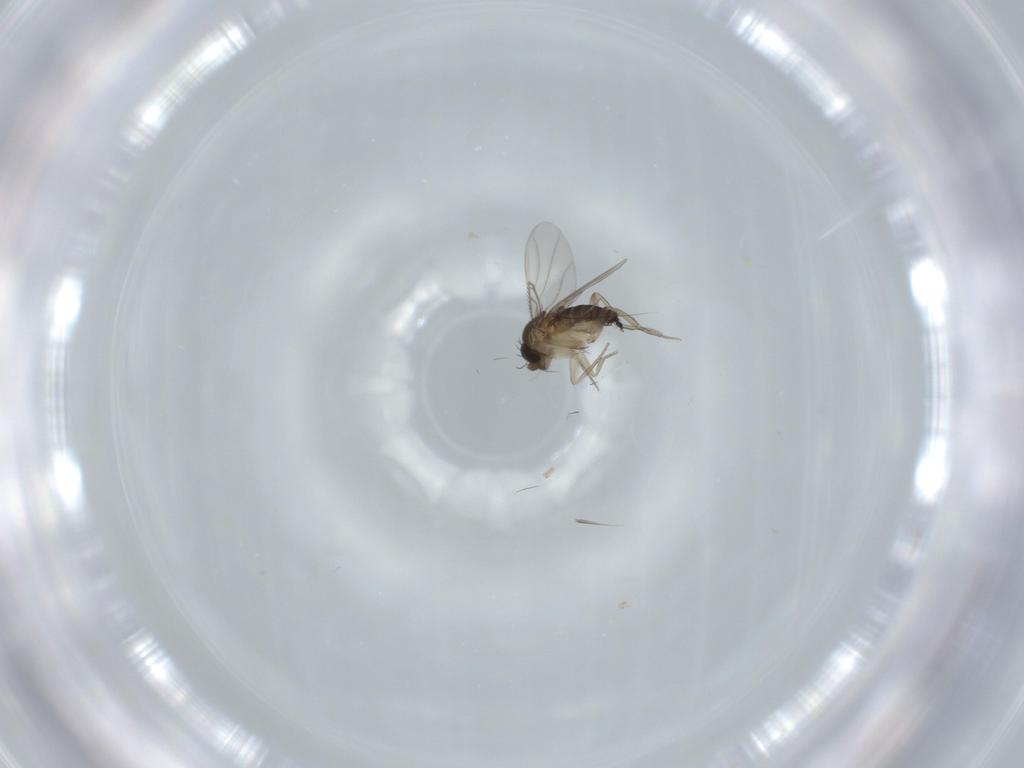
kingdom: Animalia
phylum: Arthropoda
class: Insecta
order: Diptera
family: Phoridae
